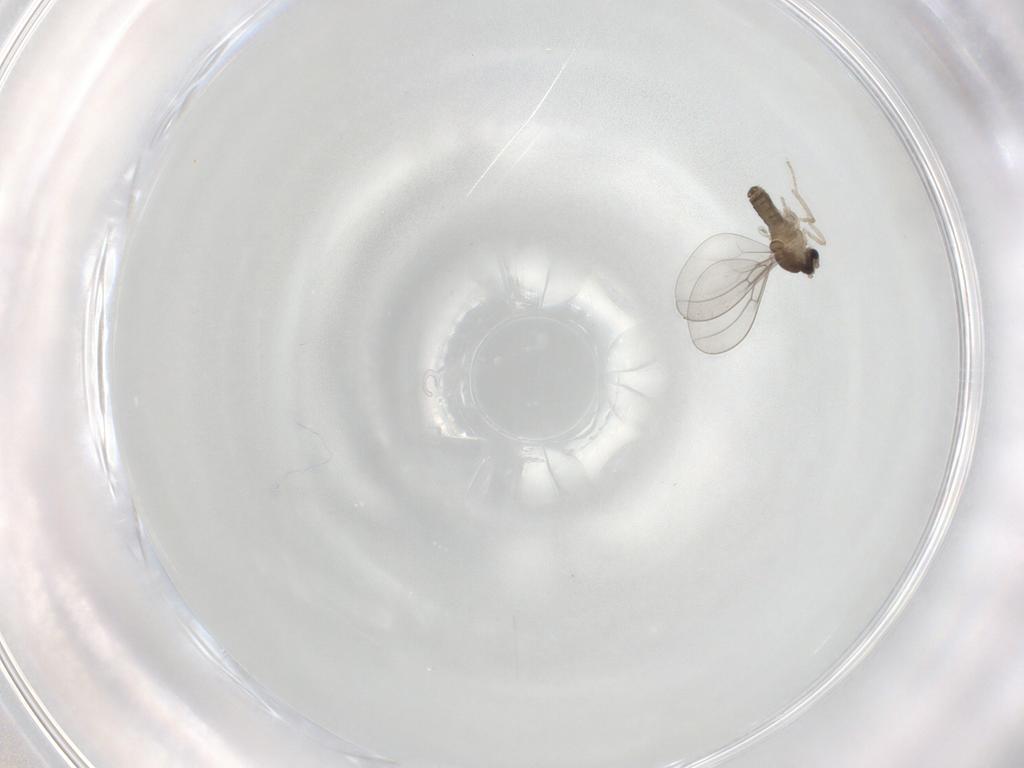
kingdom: Animalia
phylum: Arthropoda
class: Insecta
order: Diptera
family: Cecidomyiidae
